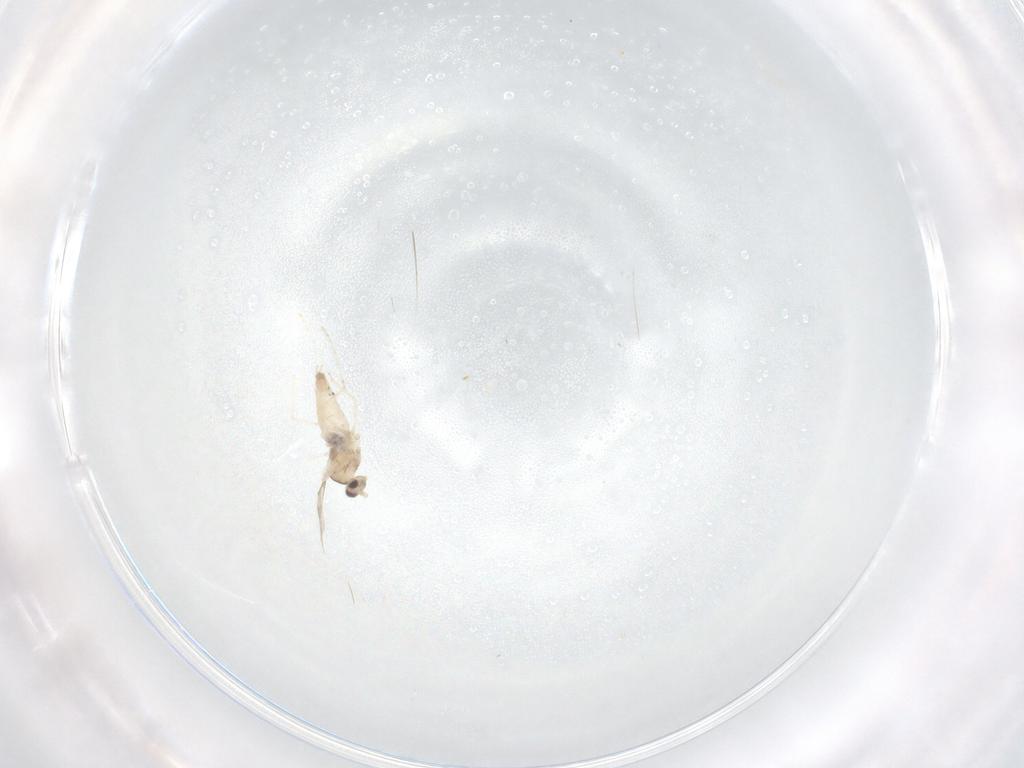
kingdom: Animalia
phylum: Arthropoda
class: Insecta
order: Diptera
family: Cecidomyiidae
